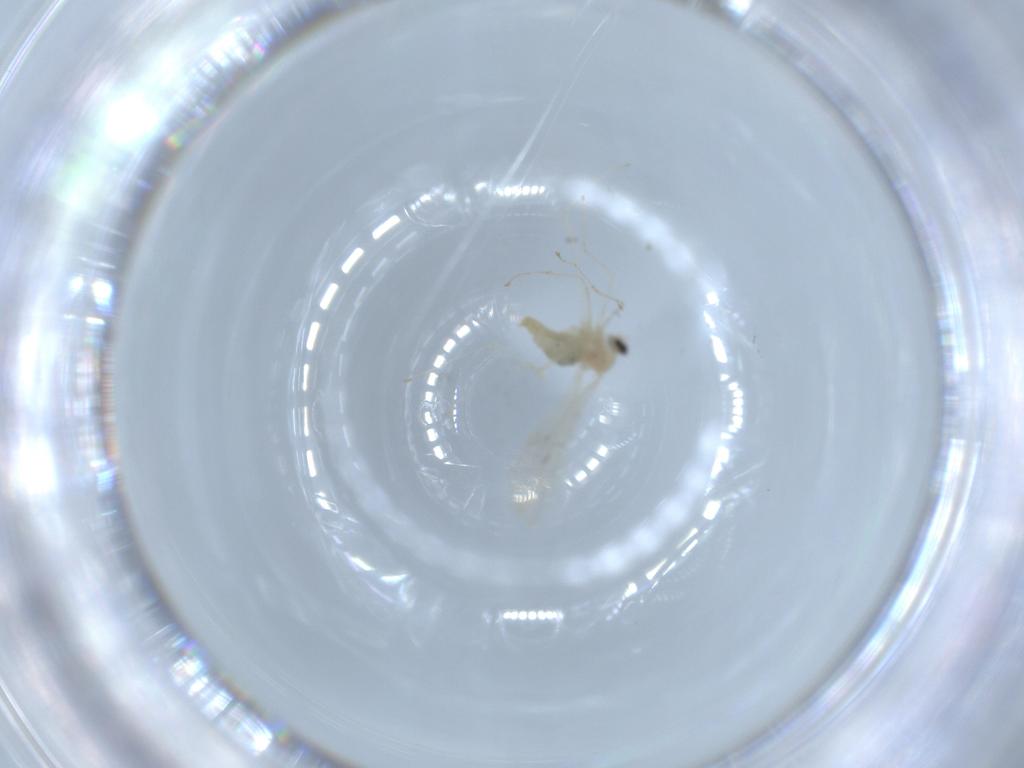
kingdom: Animalia
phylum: Arthropoda
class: Insecta
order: Diptera
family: Cecidomyiidae
